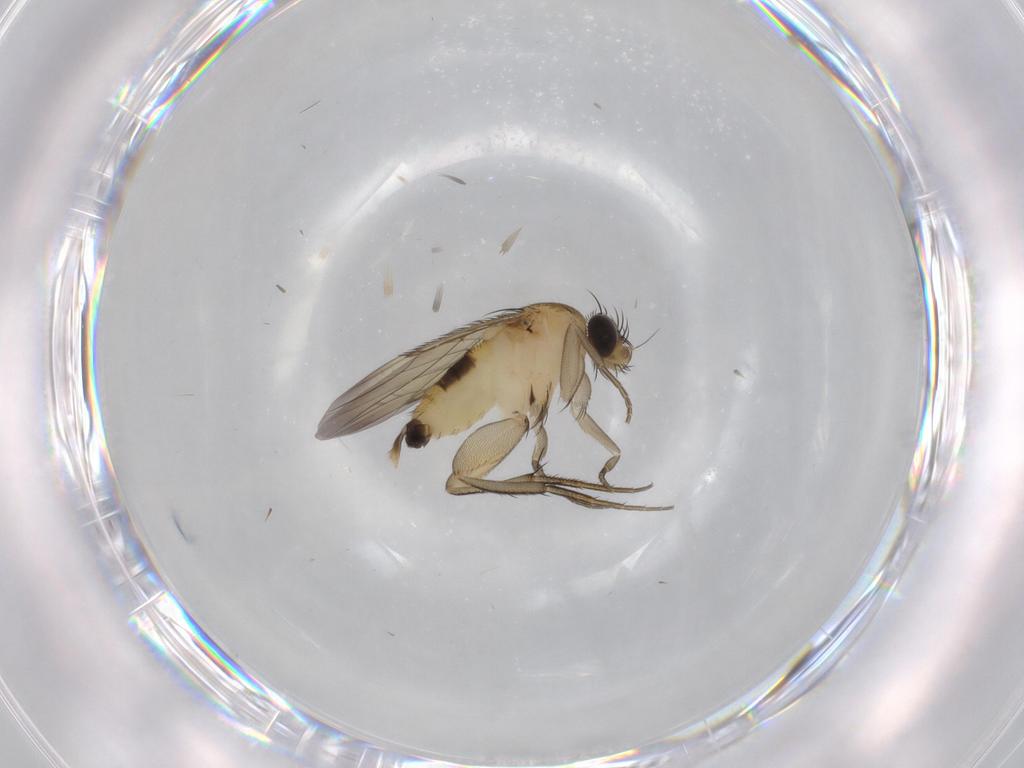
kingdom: Animalia
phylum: Arthropoda
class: Insecta
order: Diptera
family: Phoridae
